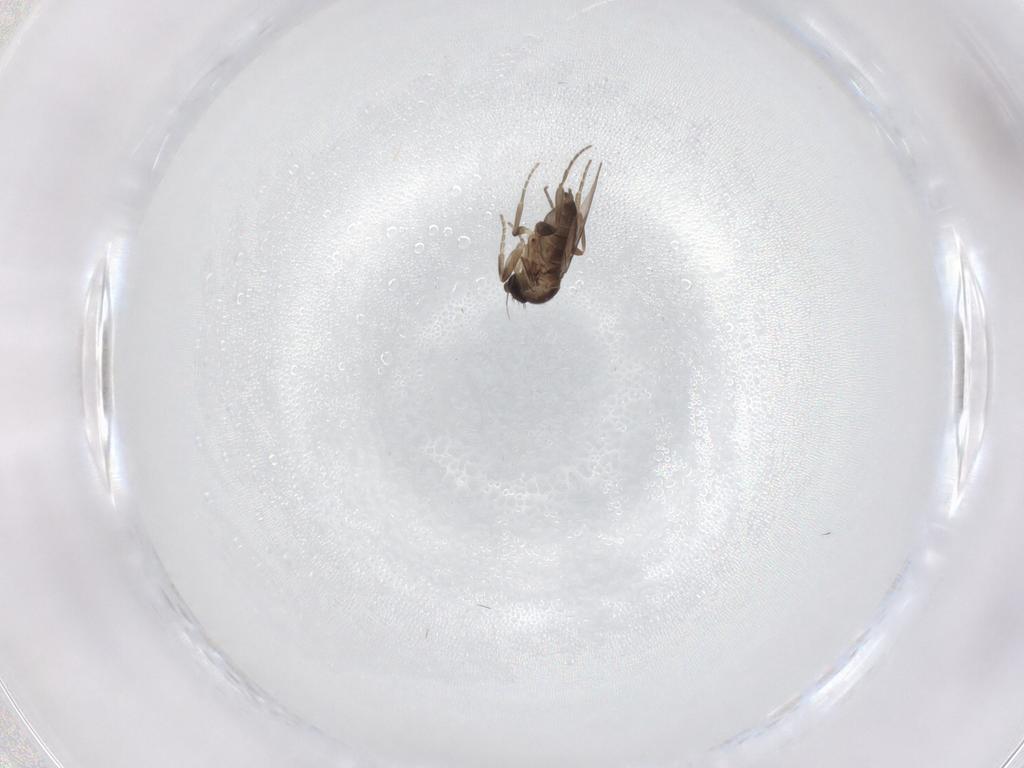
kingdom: Animalia
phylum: Arthropoda
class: Insecta
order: Diptera
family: Phoridae
